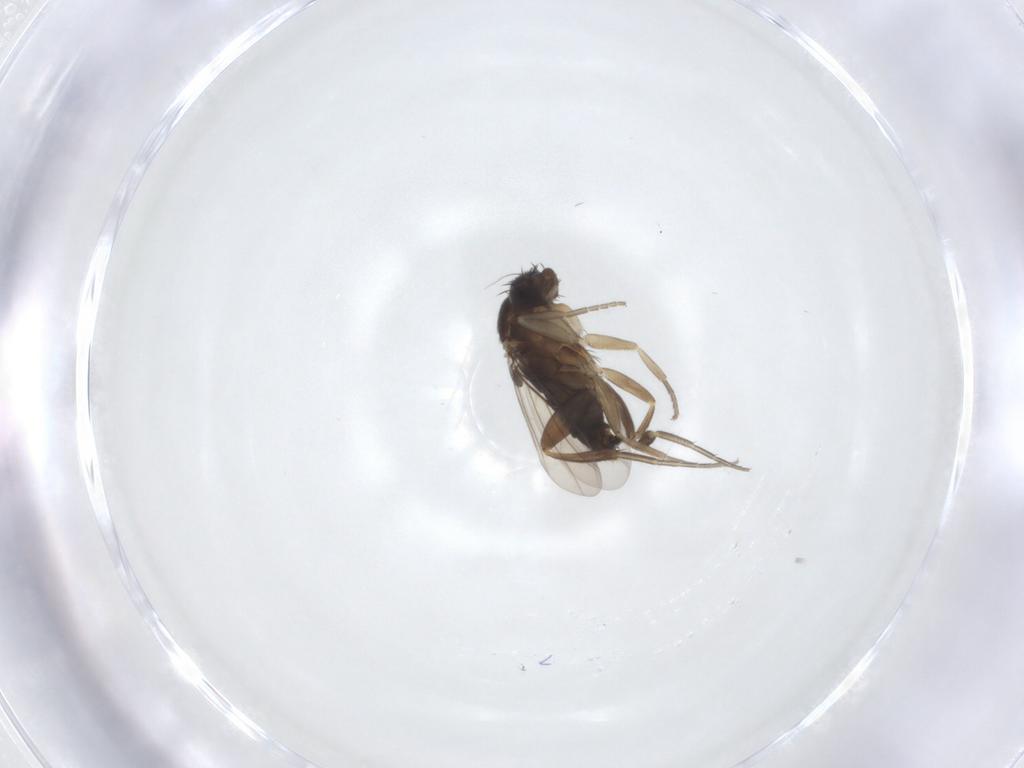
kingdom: Animalia
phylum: Arthropoda
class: Insecta
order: Diptera
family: Phoridae
